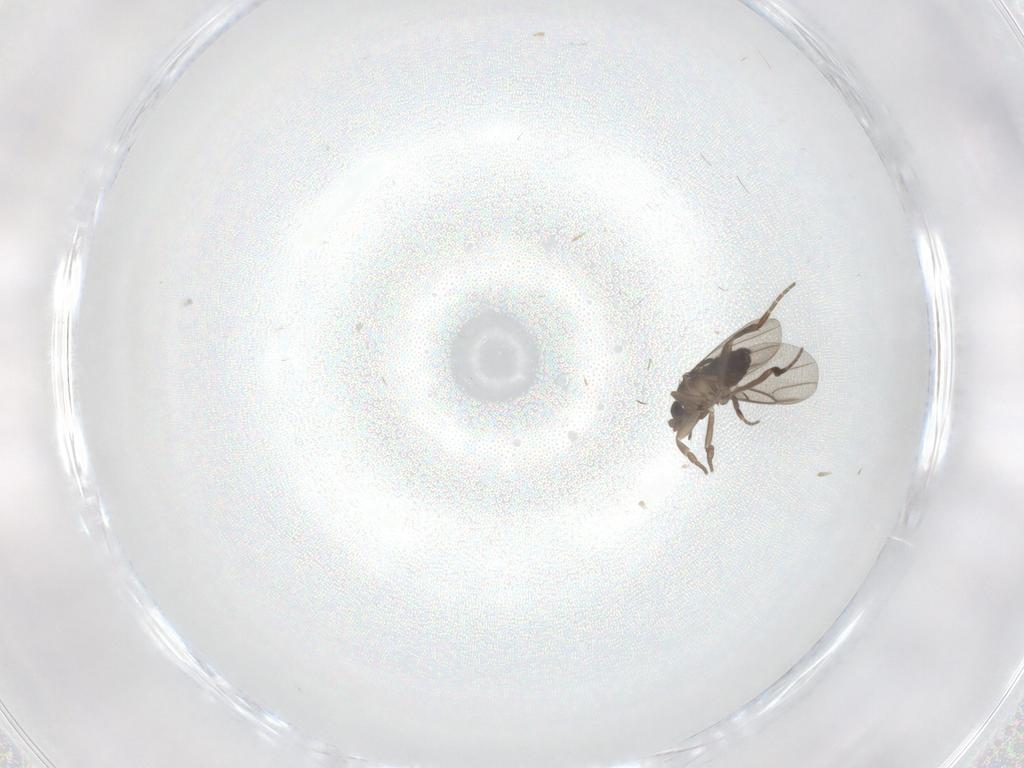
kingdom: Animalia
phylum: Arthropoda
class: Insecta
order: Diptera
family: Phoridae
